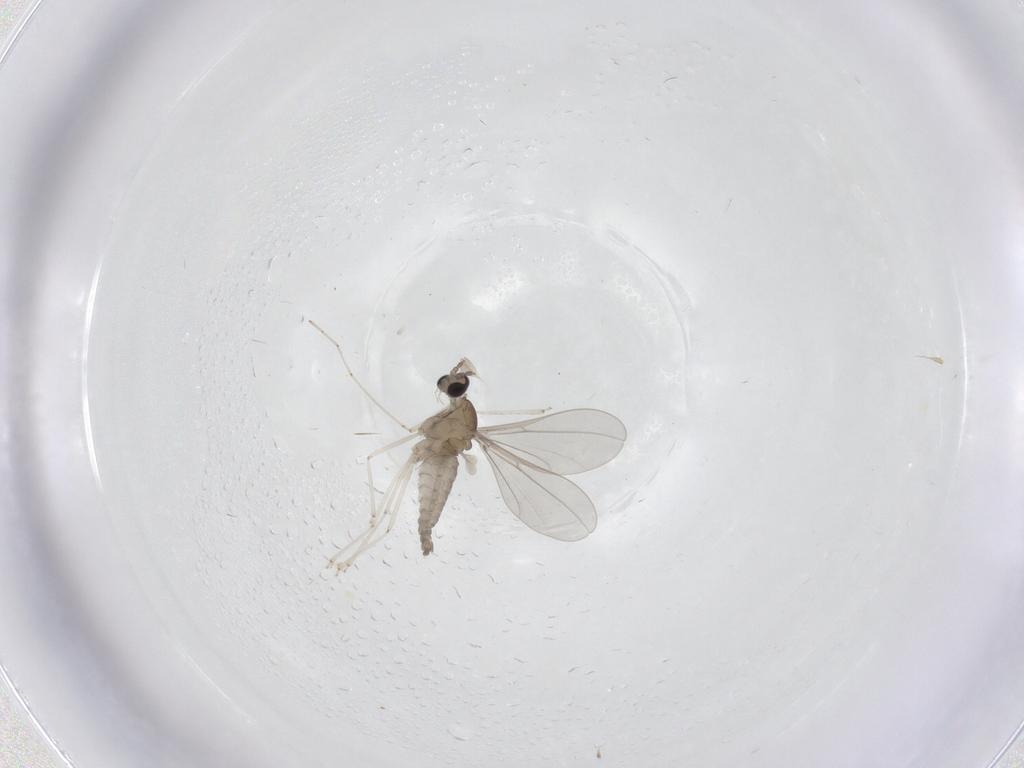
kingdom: Animalia
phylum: Arthropoda
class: Insecta
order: Diptera
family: Cecidomyiidae
